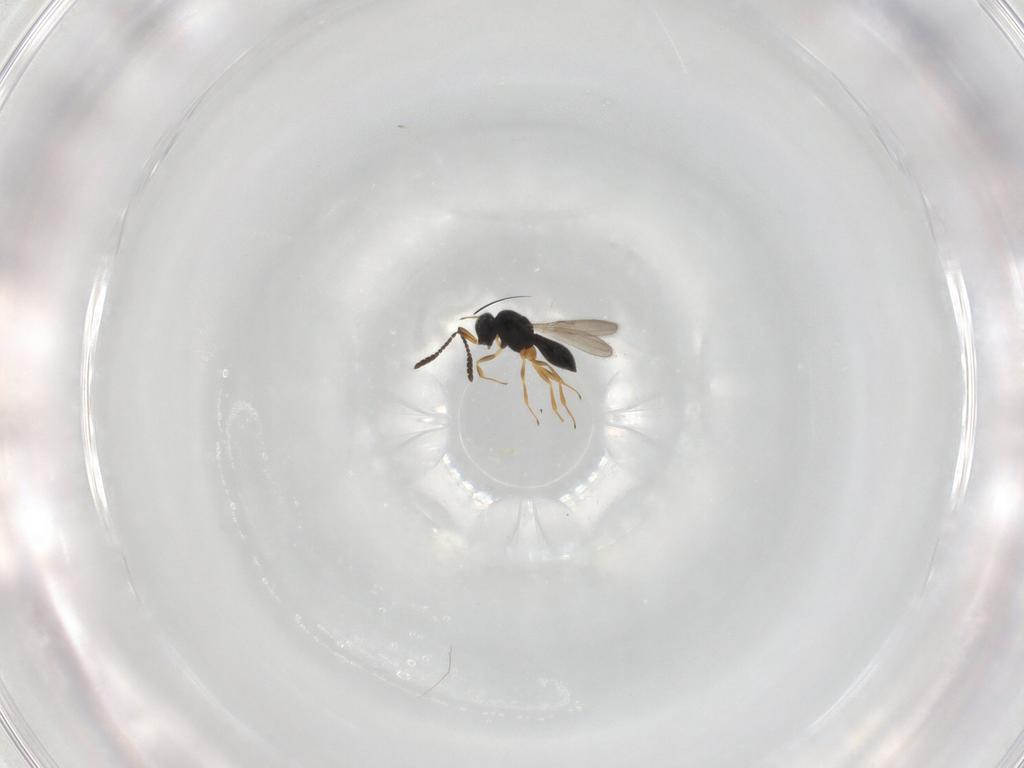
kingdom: Animalia
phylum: Arthropoda
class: Insecta
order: Hymenoptera
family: Scelionidae
